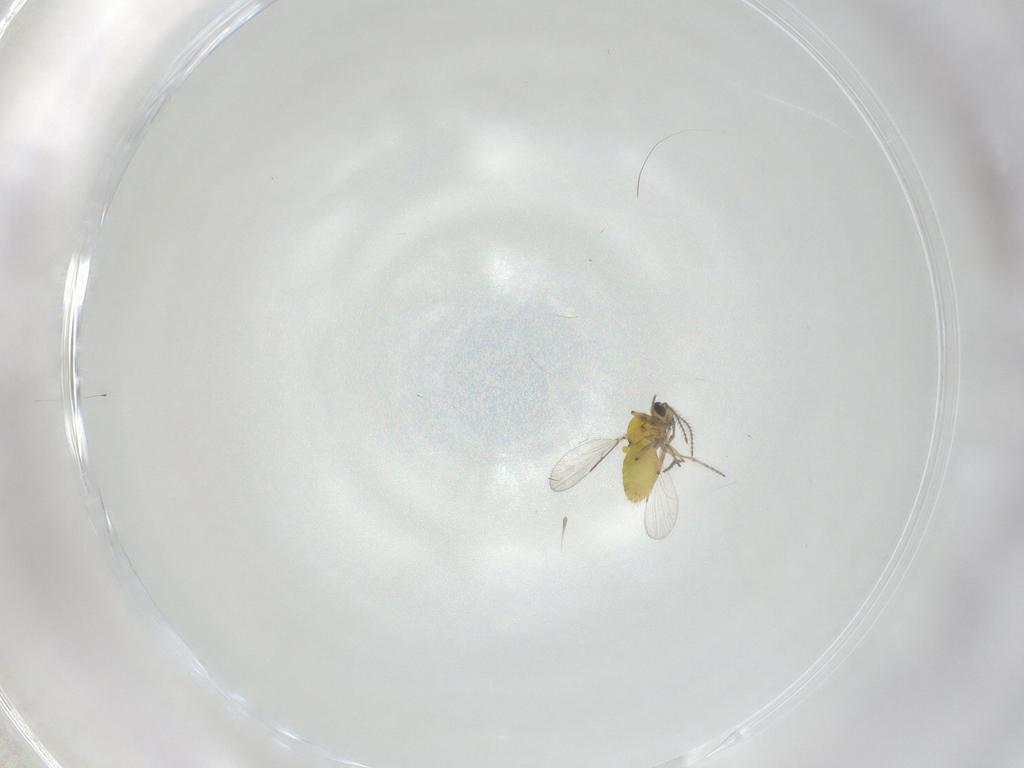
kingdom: Animalia
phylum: Arthropoda
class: Insecta
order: Diptera
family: Ceratopogonidae
